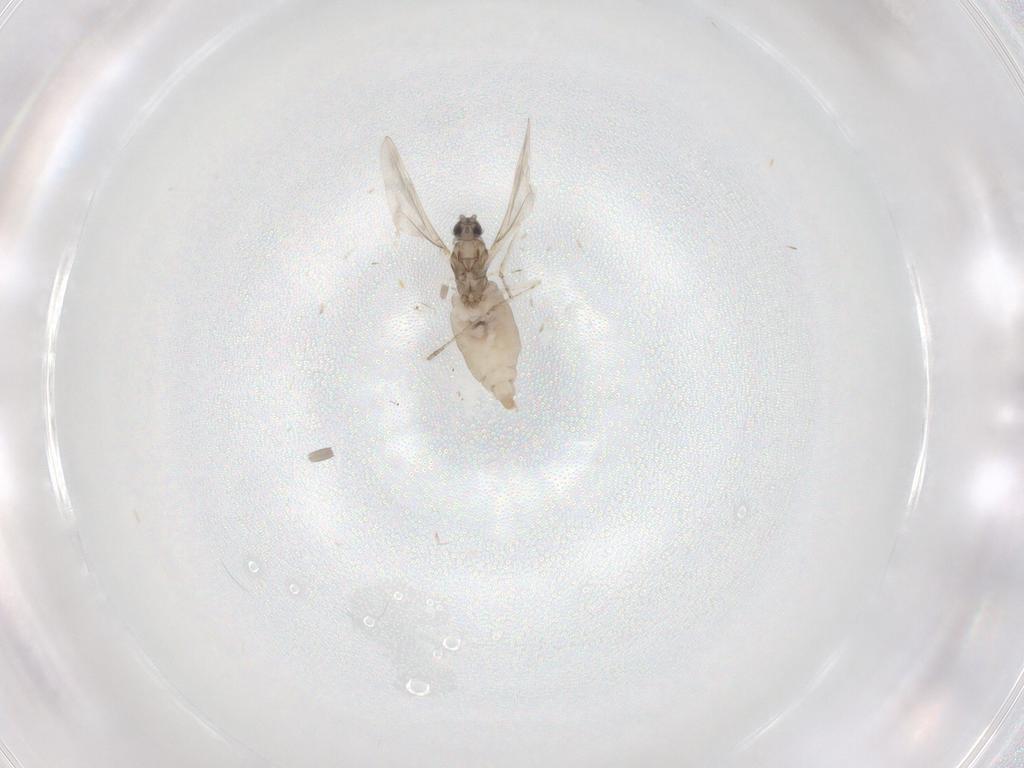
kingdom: Animalia
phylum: Arthropoda
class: Insecta
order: Diptera
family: Cecidomyiidae
